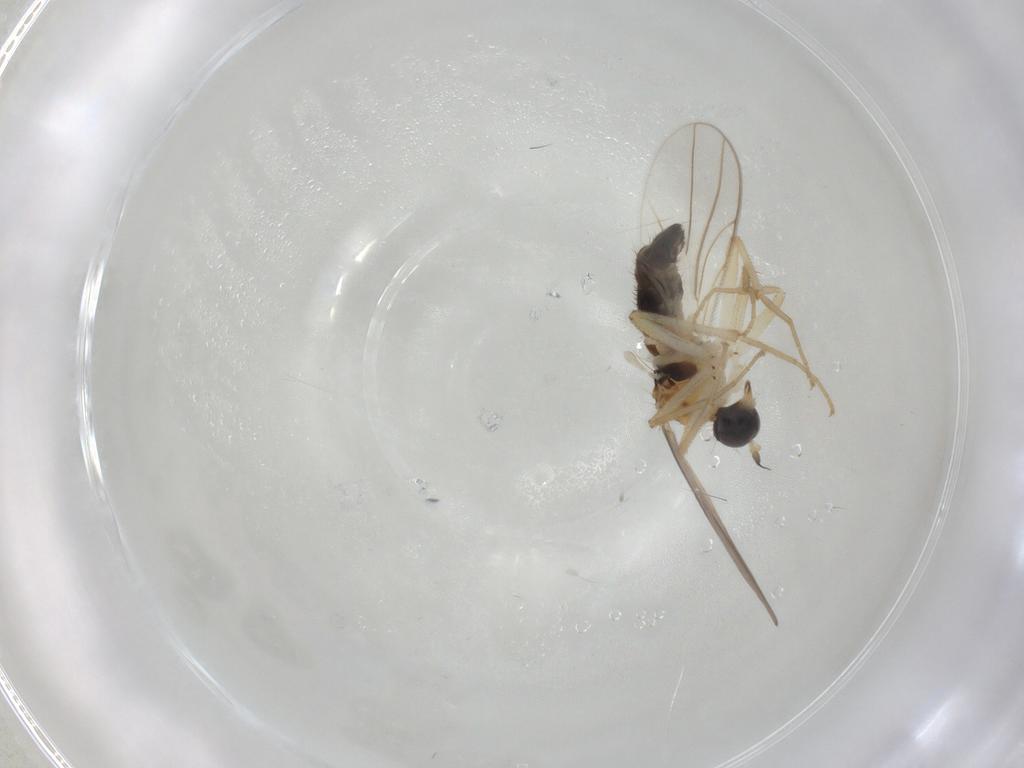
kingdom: Animalia
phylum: Arthropoda
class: Insecta
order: Diptera
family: Hybotidae
